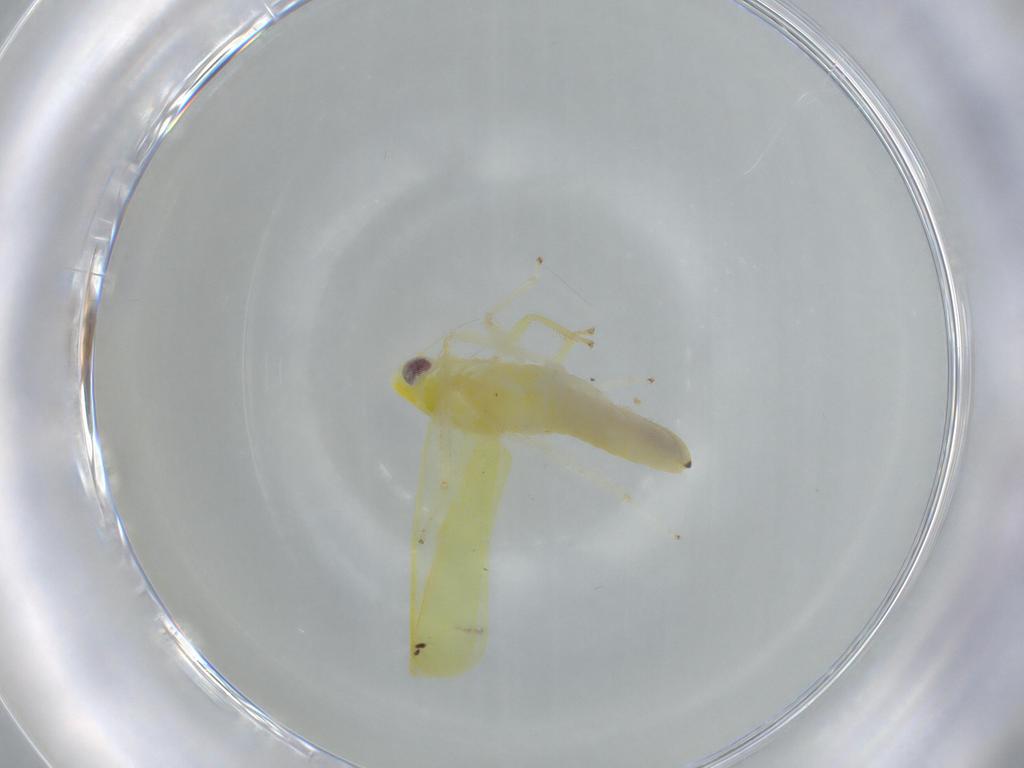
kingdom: Animalia
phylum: Arthropoda
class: Insecta
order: Hemiptera
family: Cicadellidae
